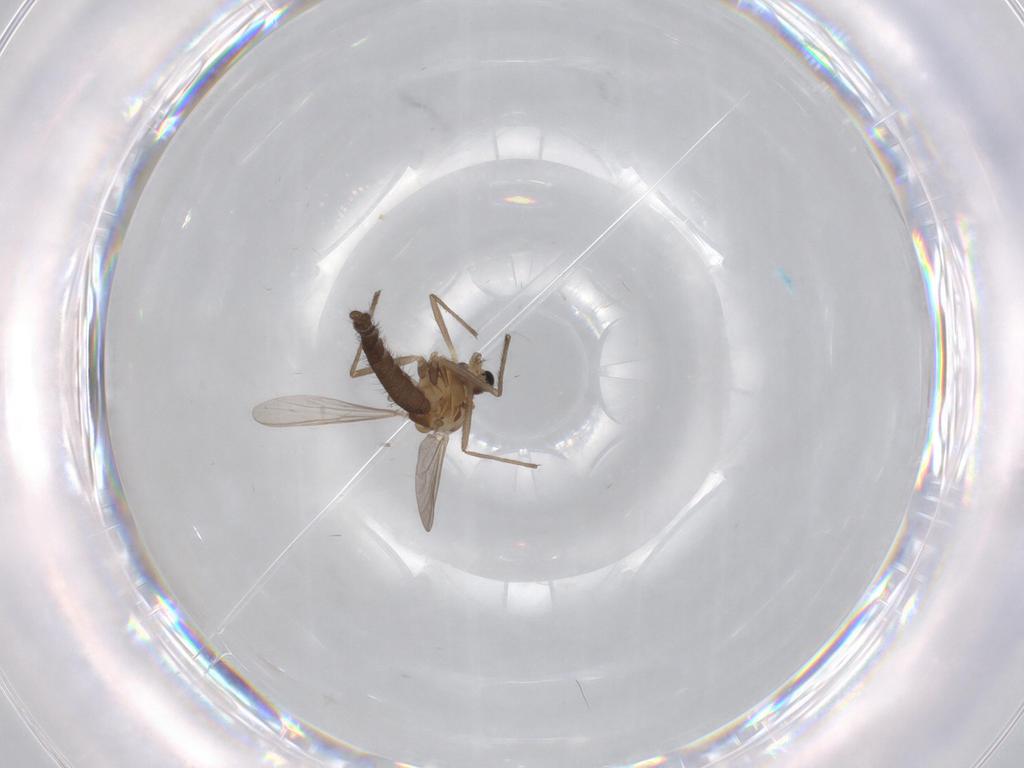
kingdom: Animalia
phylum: Arthropoda
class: Insecta
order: Diptera
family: Chironomidae
